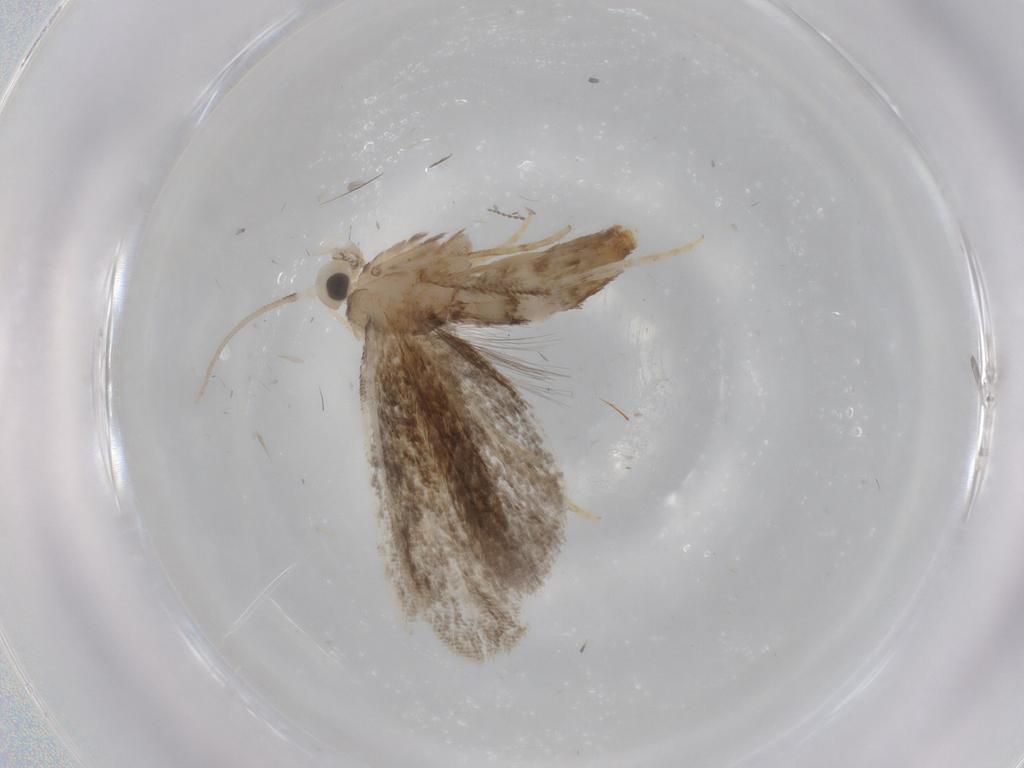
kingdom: Animalia
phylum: Arthropoda
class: Insecta
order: Lepidoptera
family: Dryadaulidae
